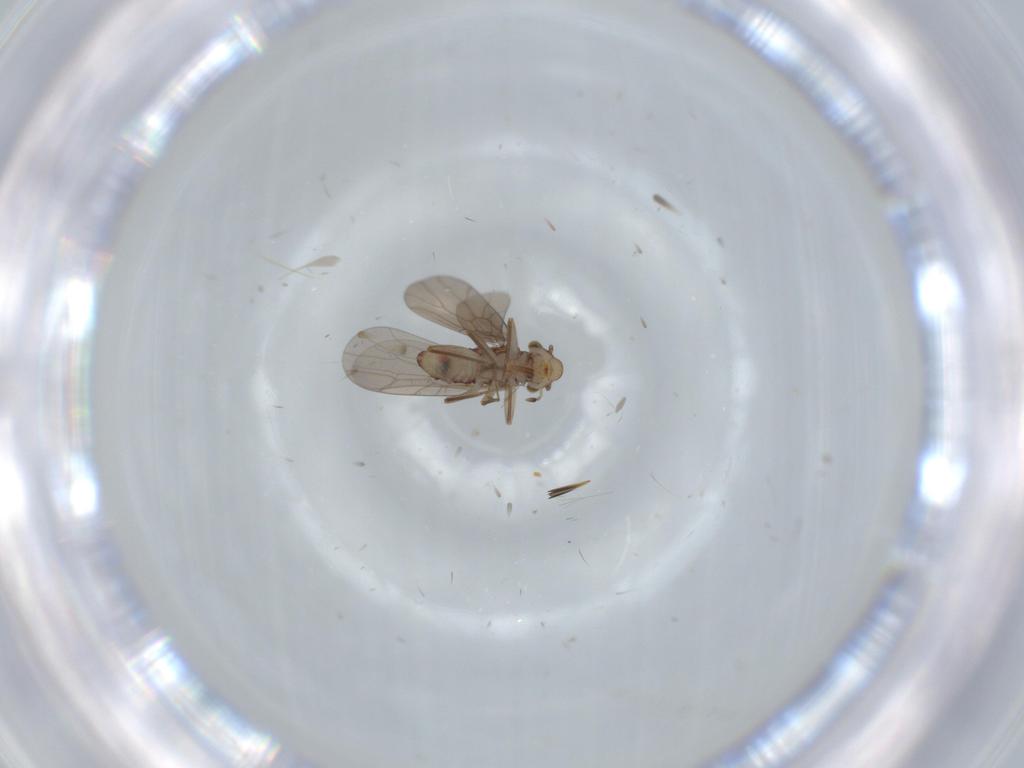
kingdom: Animalia
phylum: Arthropoda
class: Insecta
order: Psocodea
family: Lepidopsocidae
